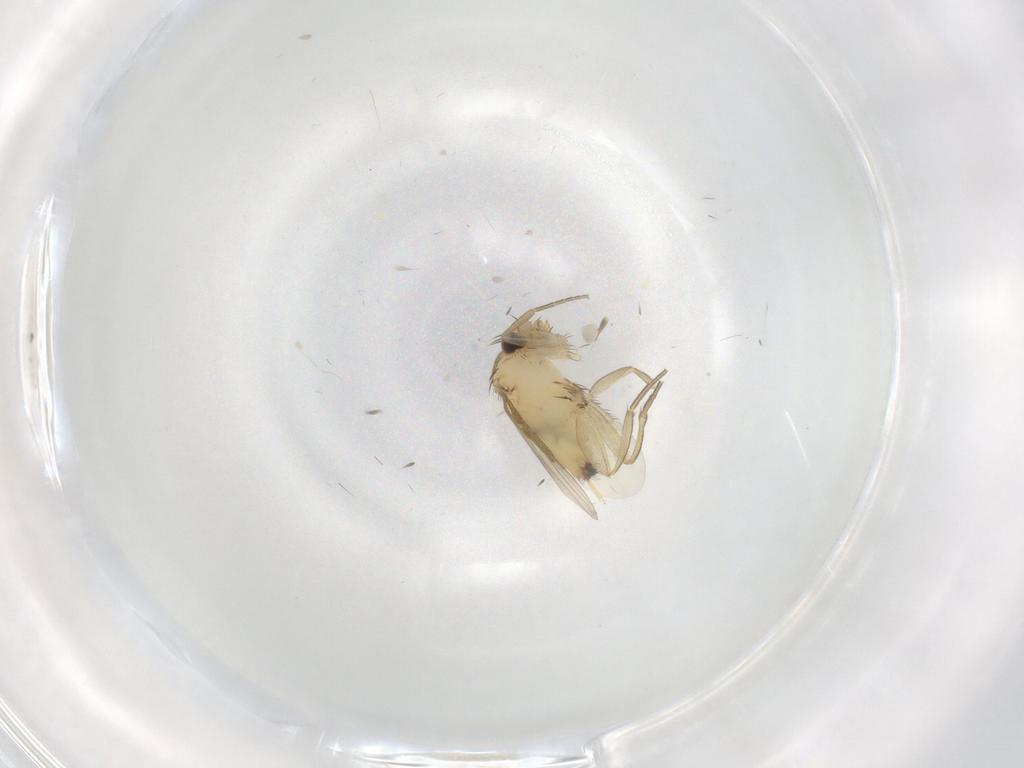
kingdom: Animalia
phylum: Arthropoda
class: Insecta
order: Diptera
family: Phoridae
